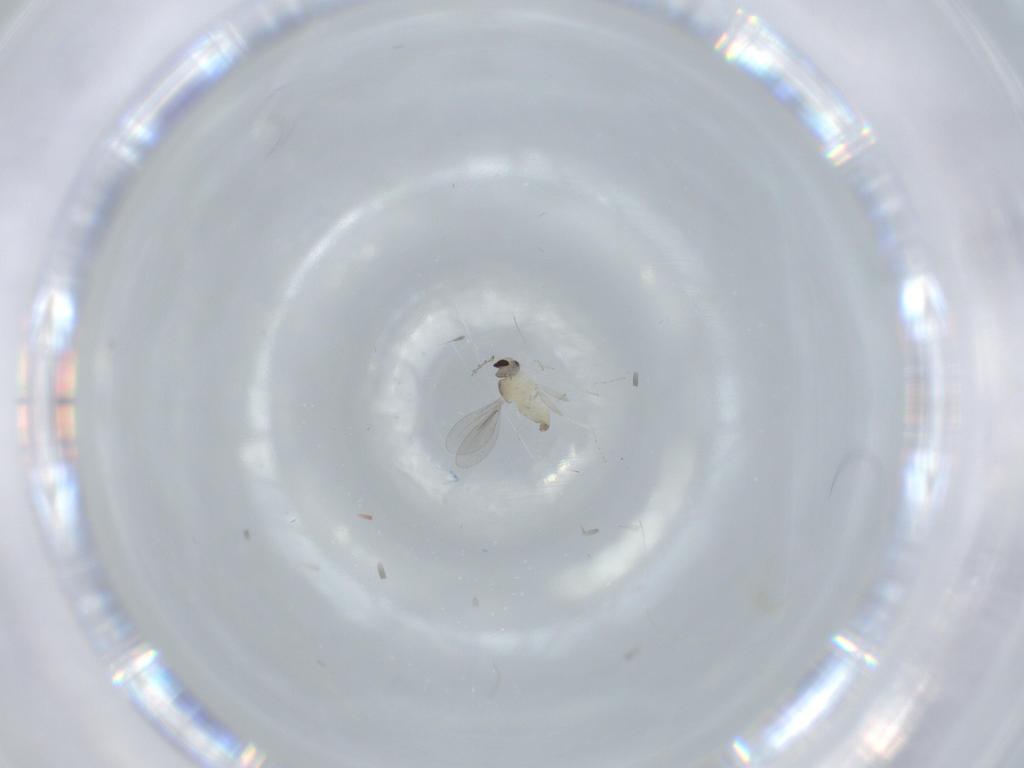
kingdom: Animalia
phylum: Arthropoda
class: Insecta
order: Diptera
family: Cecidomyiidae
